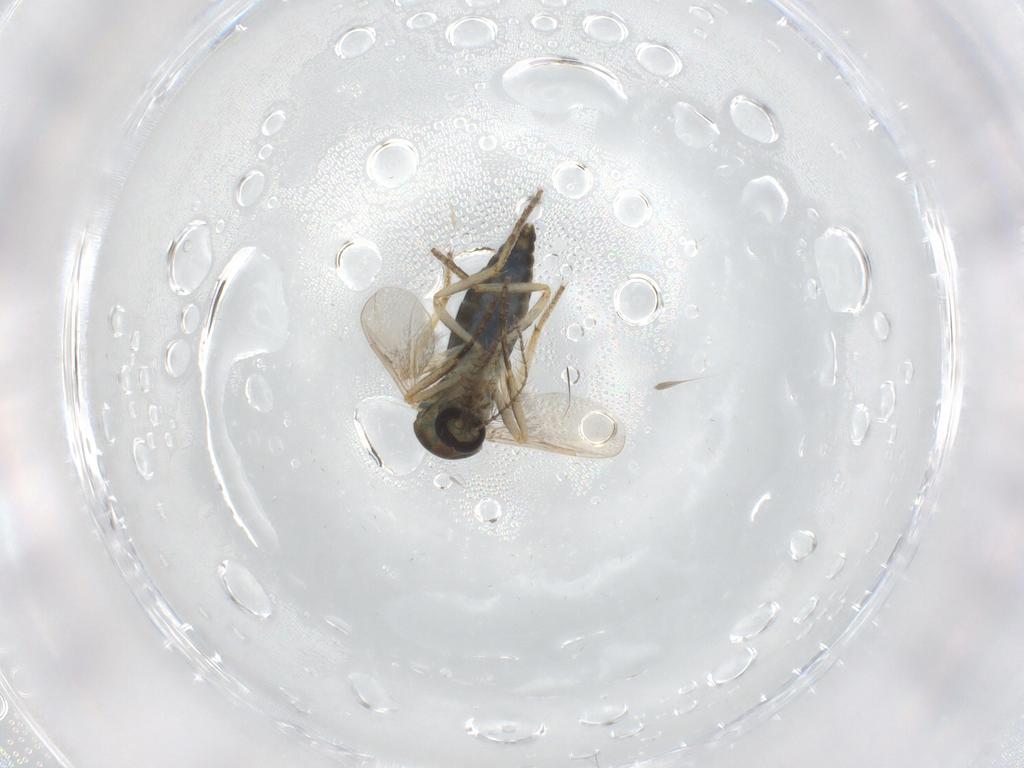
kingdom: Animalia
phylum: Arthropoda
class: Insecta
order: Diptera
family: Ceratopogonidae
